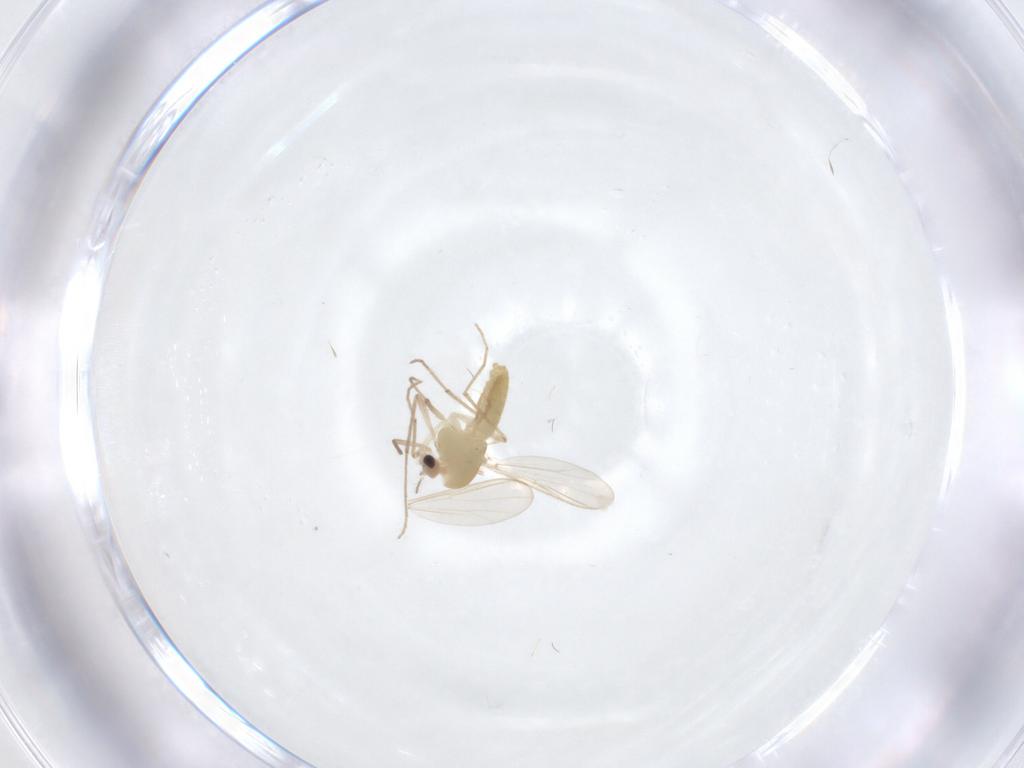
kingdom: Animalia
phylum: Arthropoda
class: Insecta
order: Diptera
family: Chironomidae
